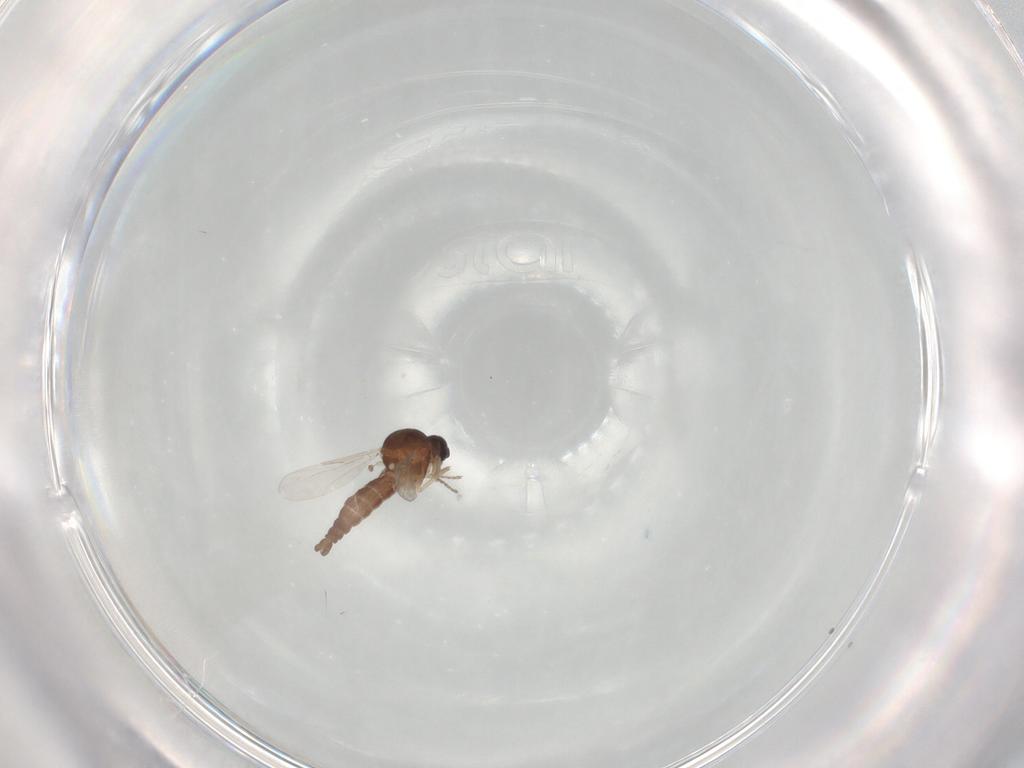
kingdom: Animalia
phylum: Arthropoda
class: Insecta
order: Diptera
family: Ceratopogonidae
